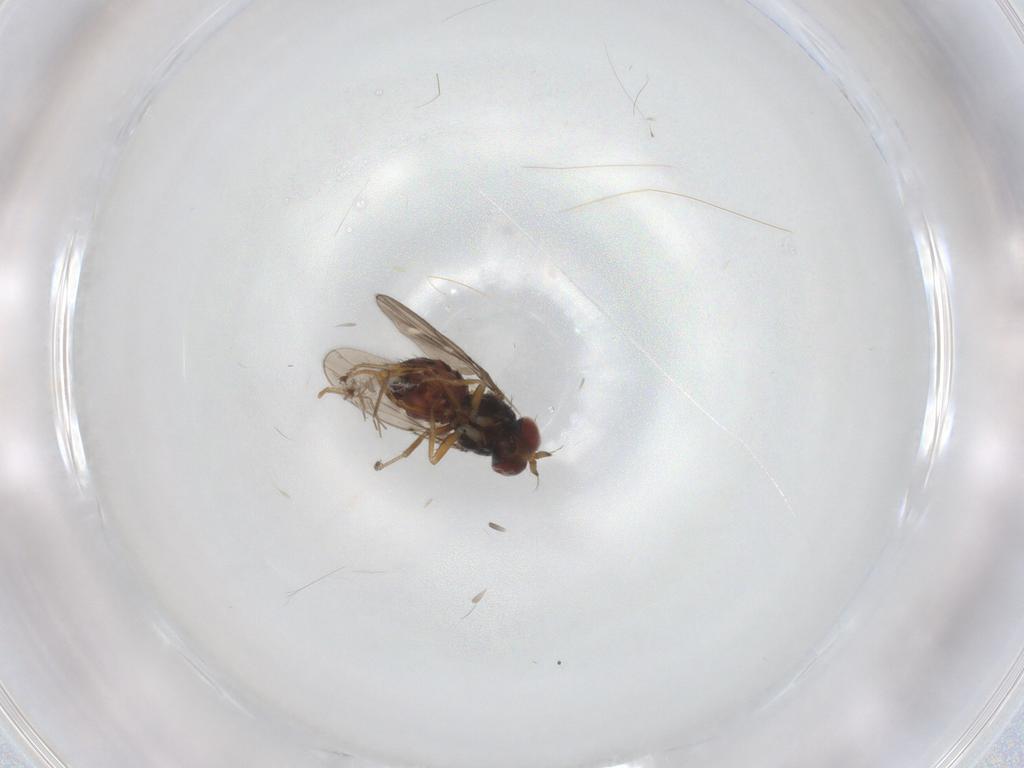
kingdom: Animalia
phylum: Arthropoda
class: Insecta
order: Diptera
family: Ephydridae
